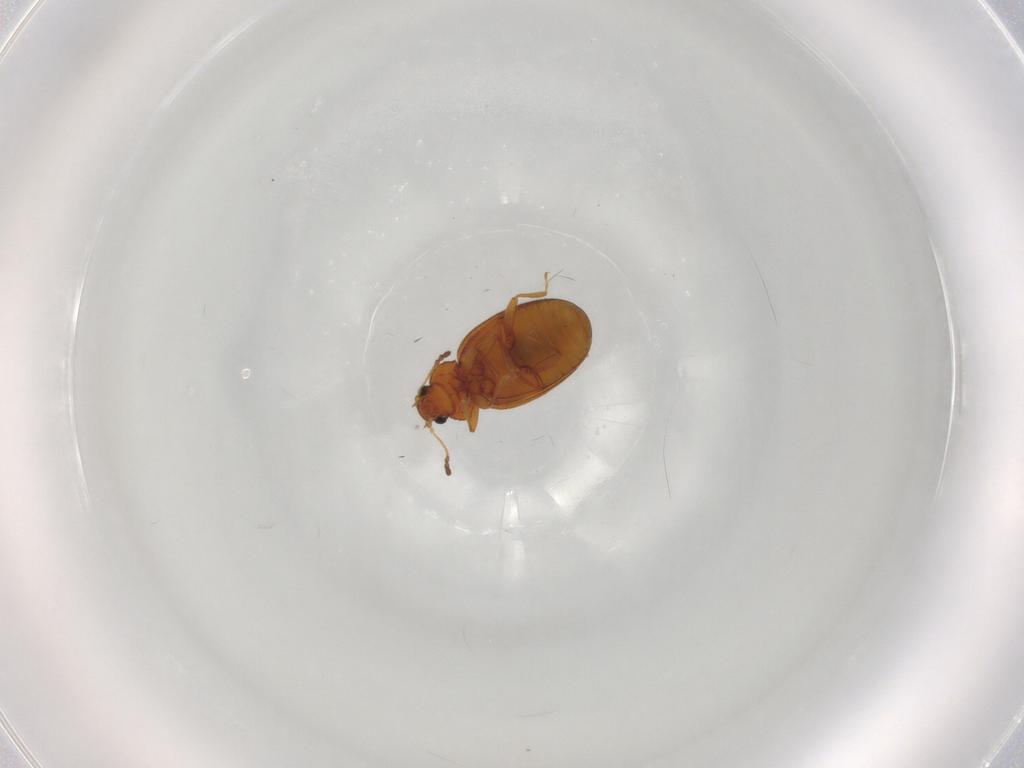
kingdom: Animalia
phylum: Arthropoda
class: Insecta
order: Coleoptera
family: Latridiidae
